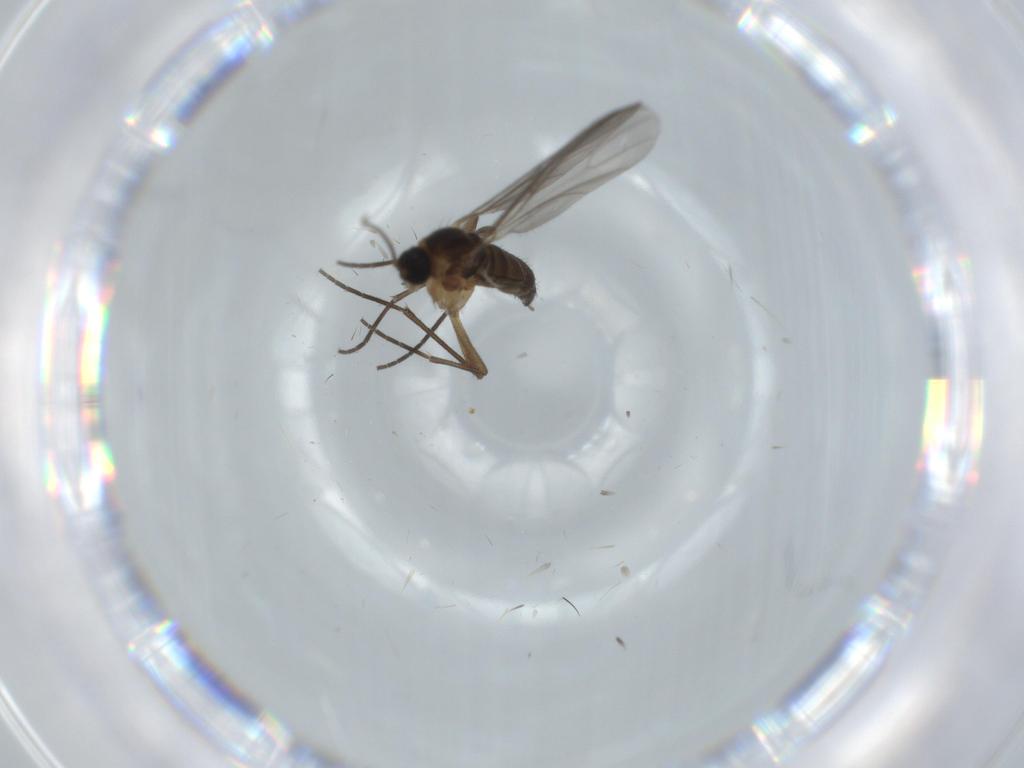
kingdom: Animalia
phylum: Arthropoda
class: Insecta
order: Diptera
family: Sciaridae
